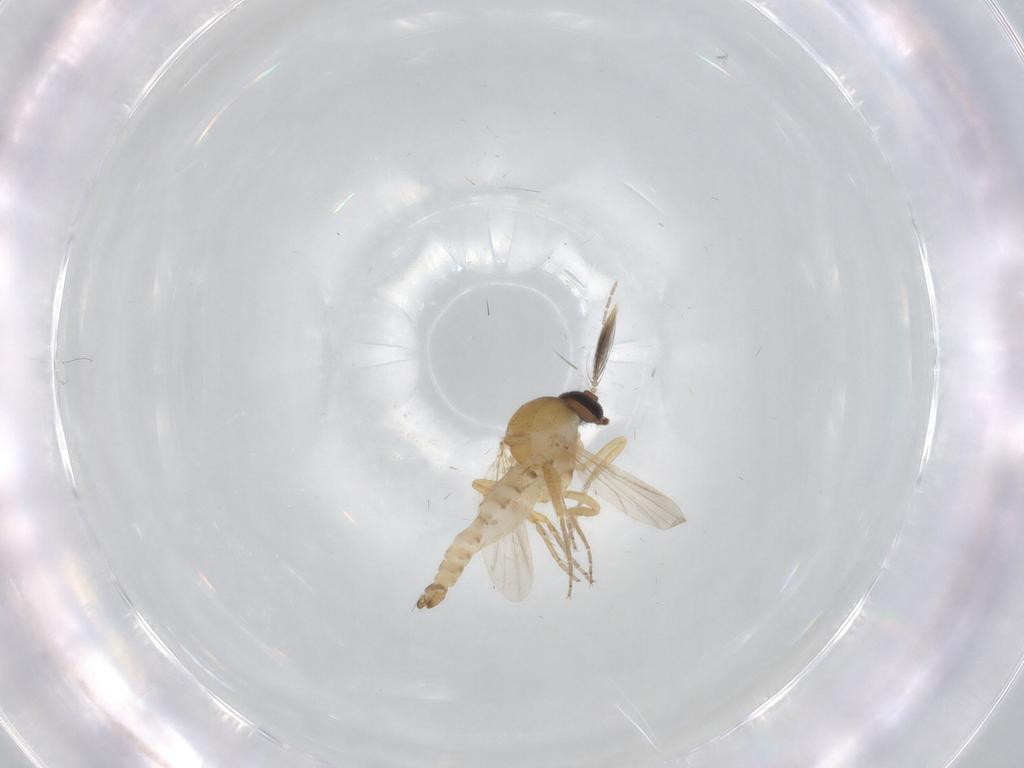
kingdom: Animalia
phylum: Arthropoda
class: Insecta
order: Diptera
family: Ceratopogonidae
